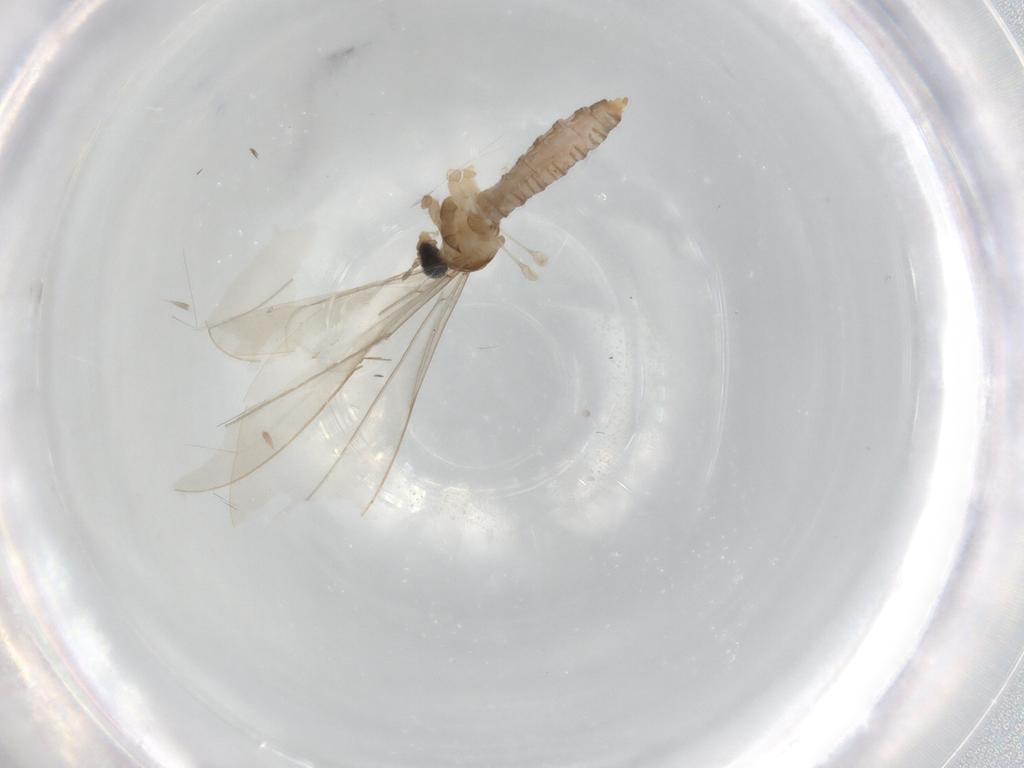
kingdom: Animalia
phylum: Arthropoda
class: Insecta
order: Diptera
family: Cecidomyiidae
